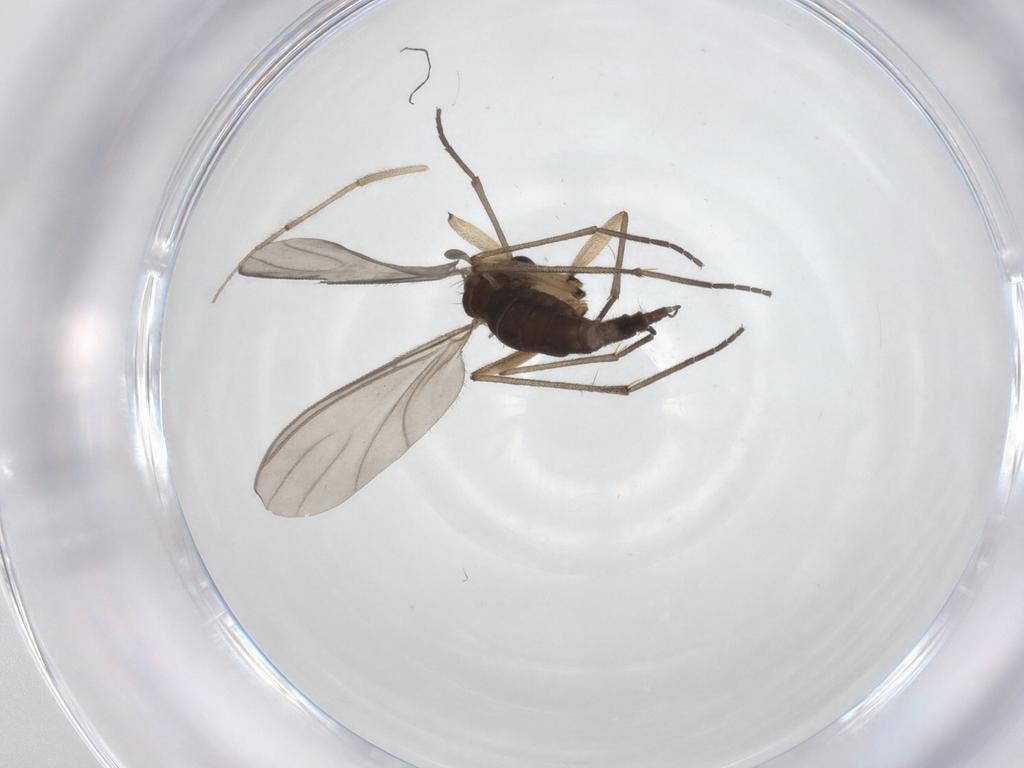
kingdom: Animalia
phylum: Arthropoda
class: Insecta
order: Diptera
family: Sciaridae
